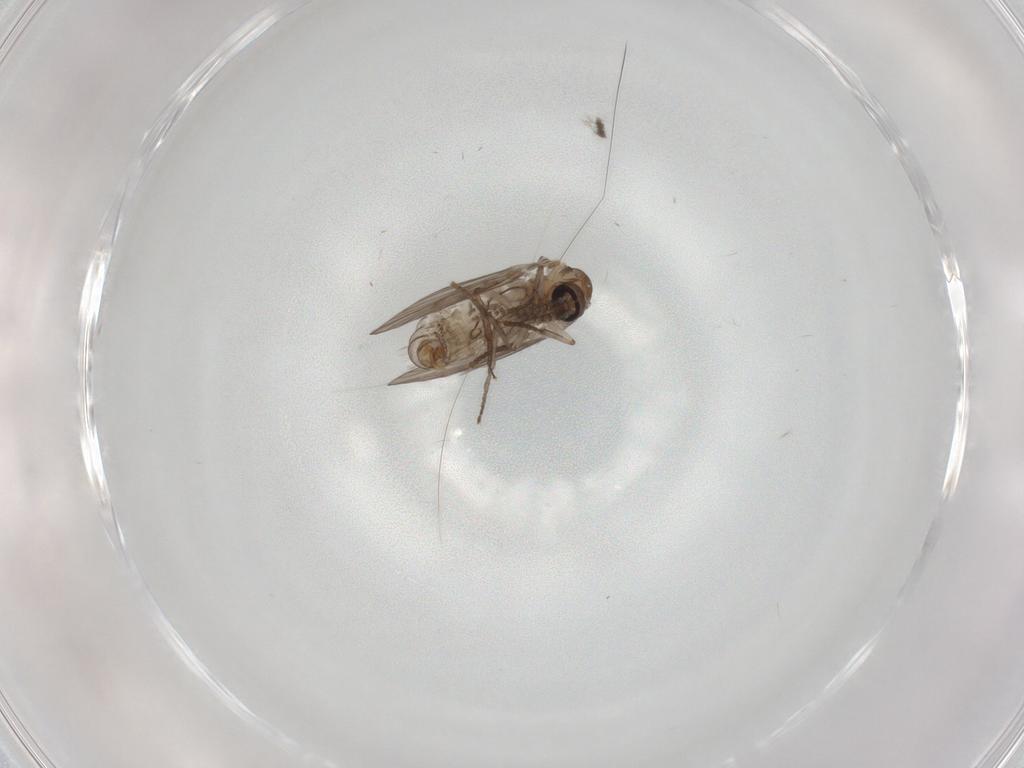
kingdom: Animalia
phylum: Arthropoda
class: Insecta
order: Diptera
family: Psychodidae
